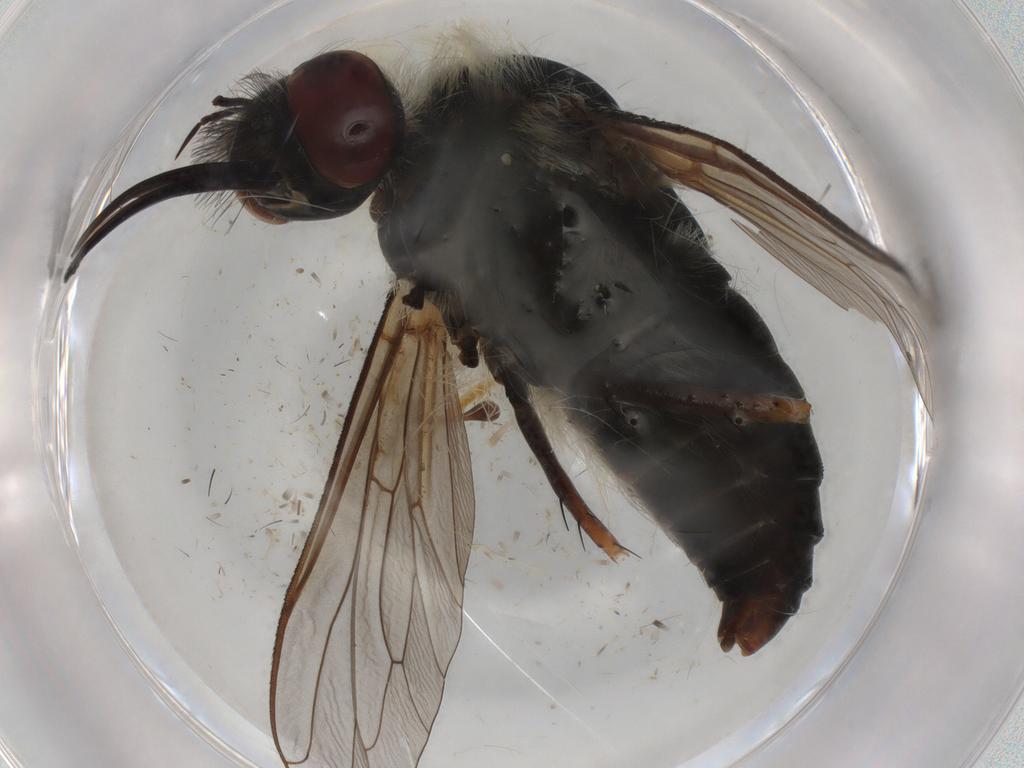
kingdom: Animalia
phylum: Arthropoda
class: Insecta
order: Diptera
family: Bombyliidae
